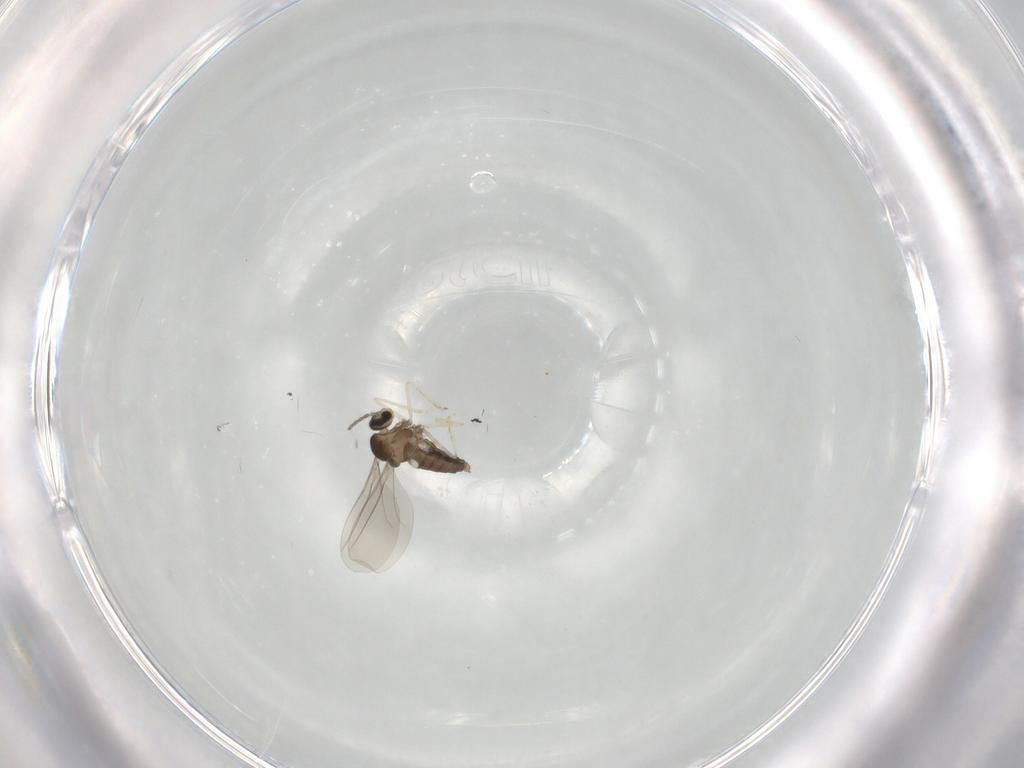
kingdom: Animalia
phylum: Arthropoda
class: Insecta
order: Diptera
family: Cecidomyiidae
